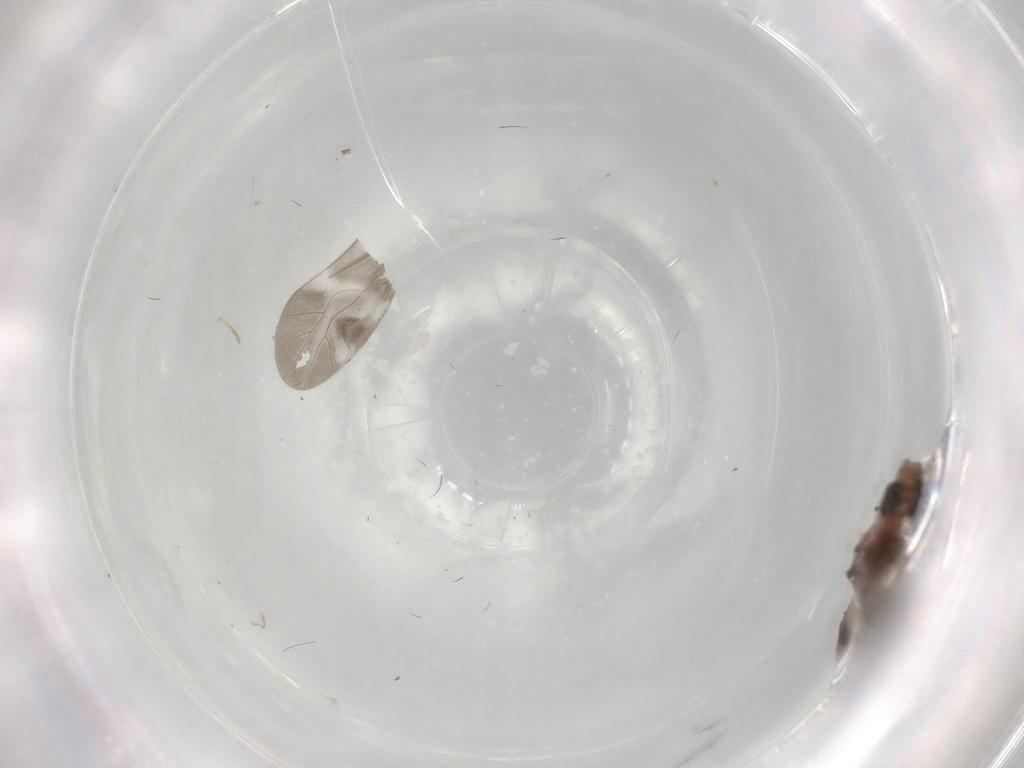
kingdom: Animalia
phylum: Arthropoda
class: Insecta
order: Psocodea
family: Caeciliusidae
